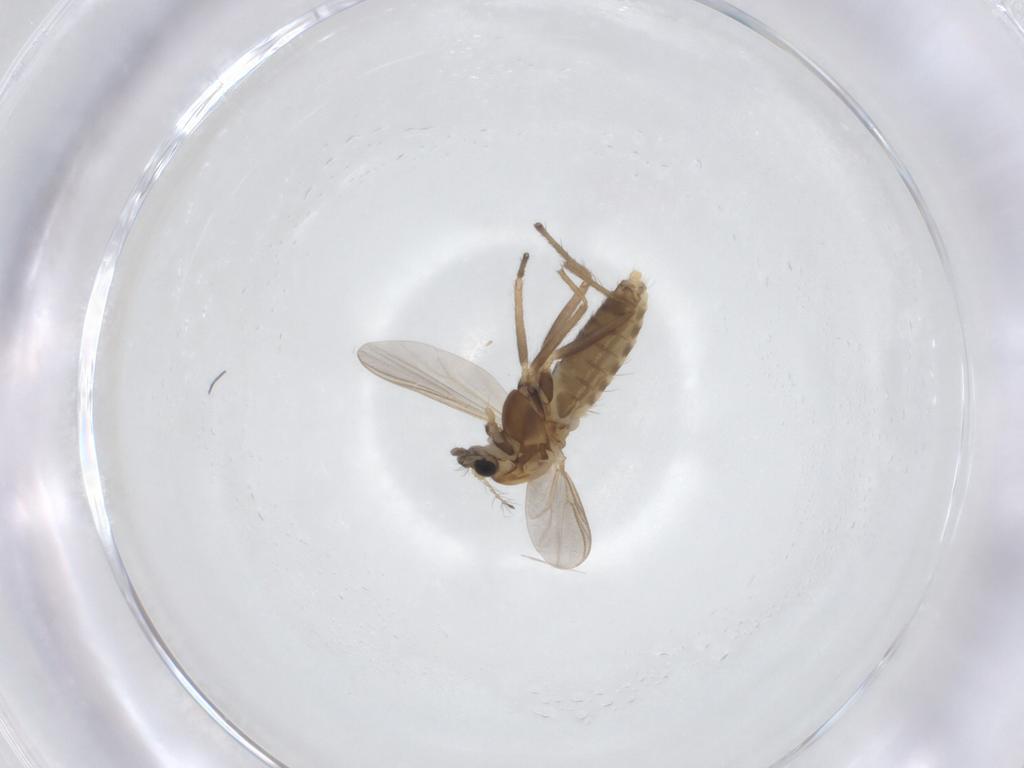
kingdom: Animalia
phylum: Arthropoda
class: Insecta
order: Diptera
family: Chironomidae
